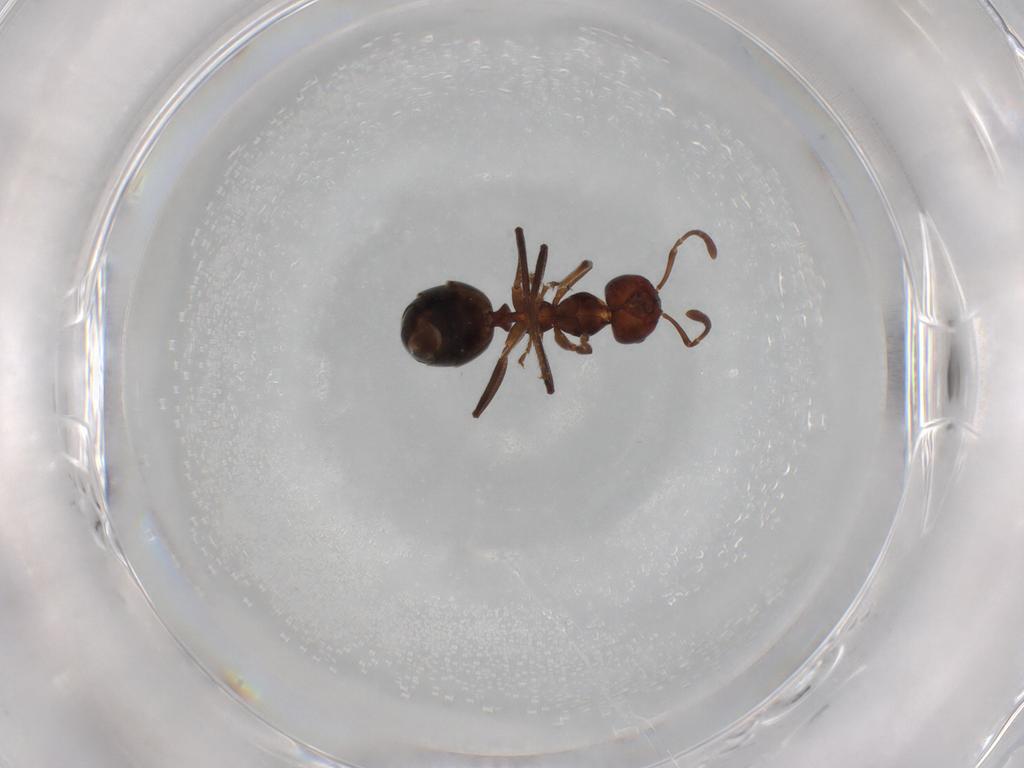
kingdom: Animalia
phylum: Arthropoda
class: Insecta
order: Hymenoptera
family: Formicidae
